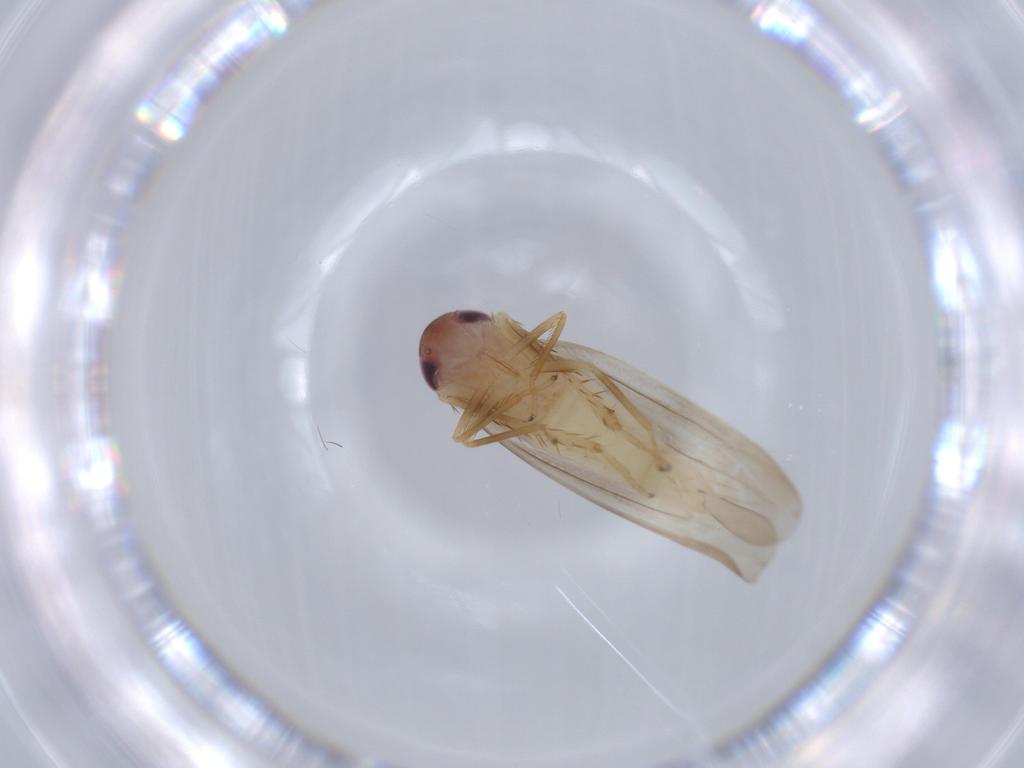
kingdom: Animalia
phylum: Arthropoda
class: Insecta
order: Hemiptera
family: Cicadellidae
